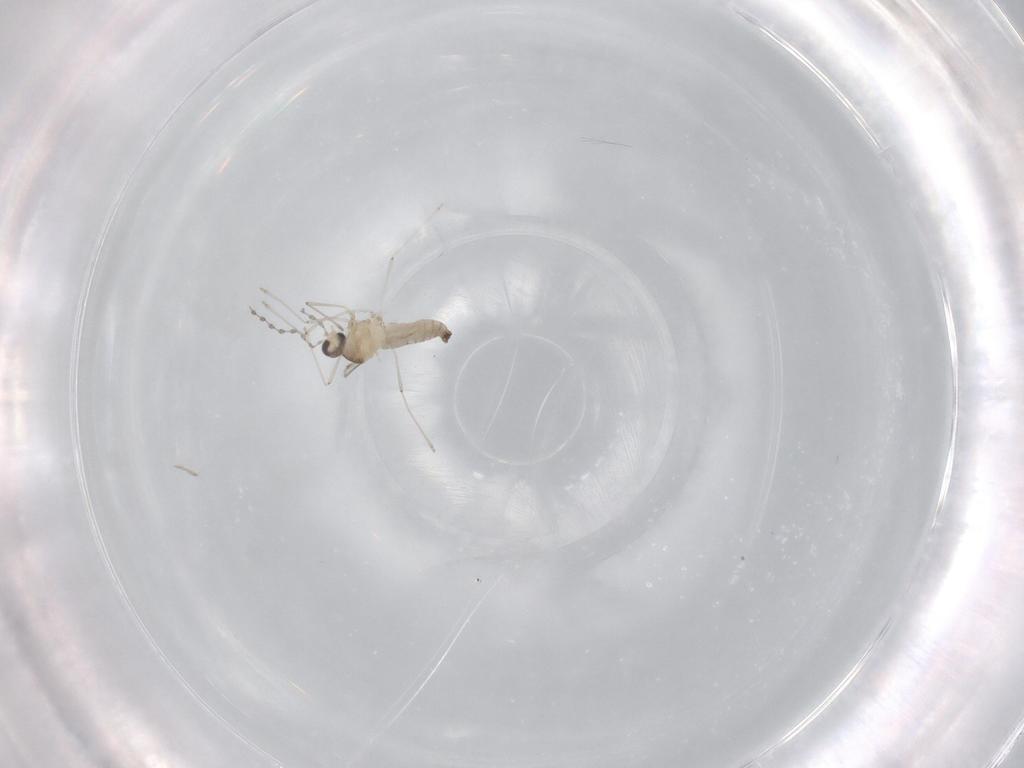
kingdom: Animalia
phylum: Arthropoda
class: Insecta
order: Diptera
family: Cecidomyiidae
